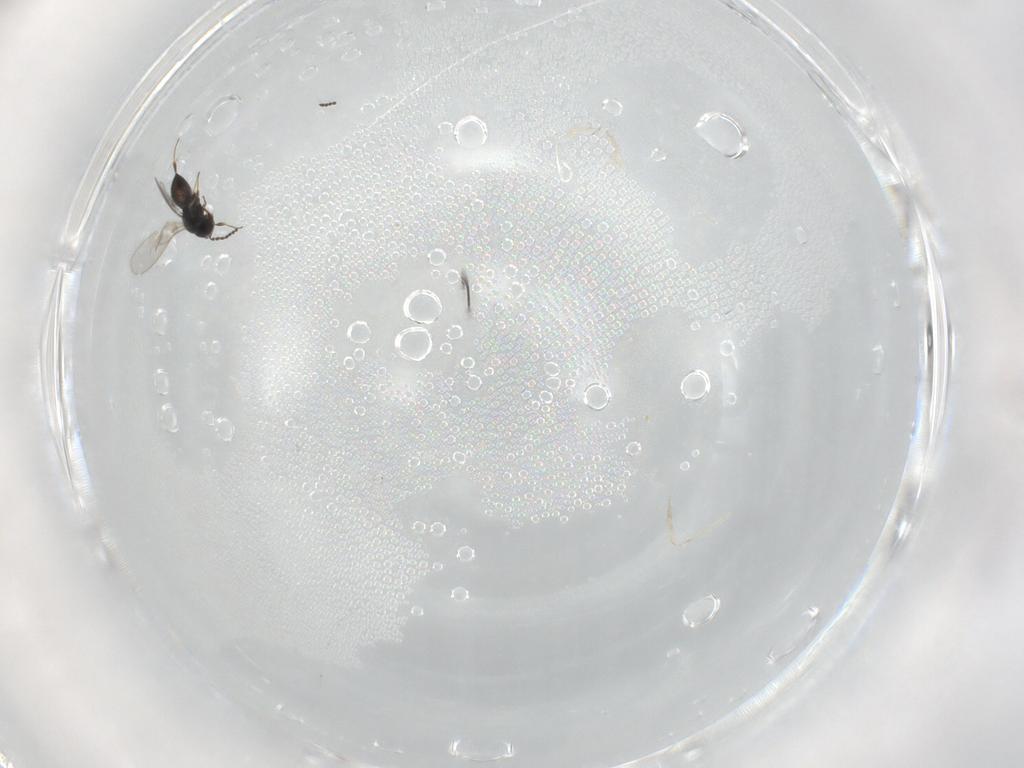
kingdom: Animalia
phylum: Arthropoda
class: Insecta
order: Hymenoptera
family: Scelionidae
